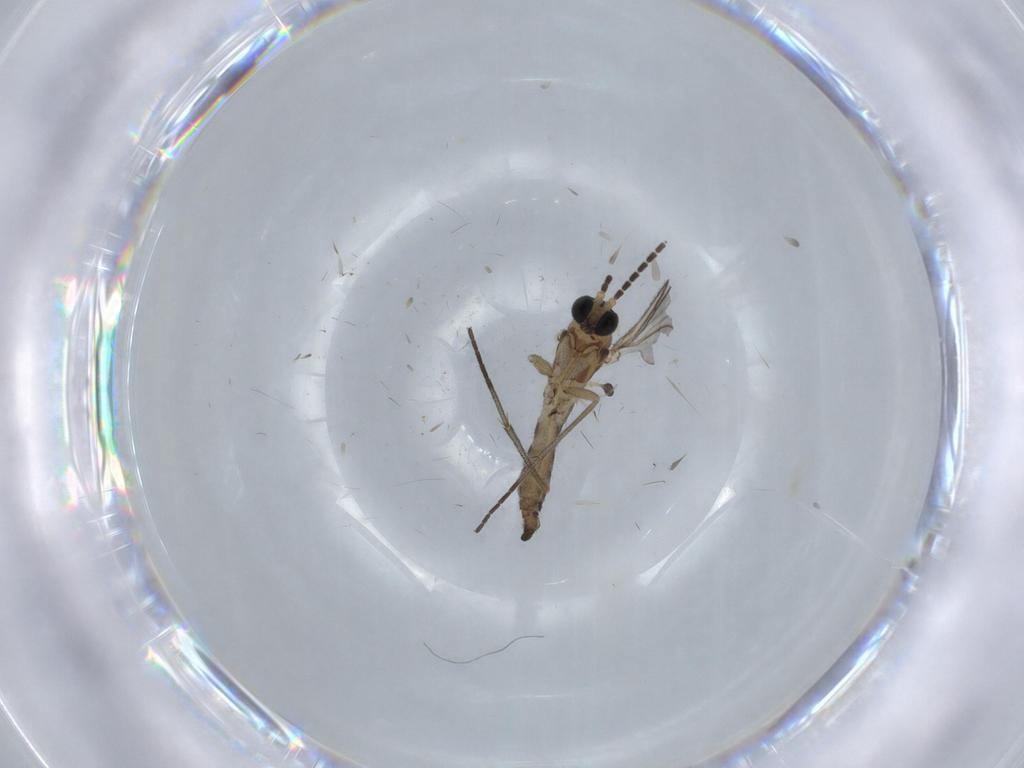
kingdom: Animalia
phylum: Arthropoda
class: Insecta
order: Diptera
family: Sciaridae
